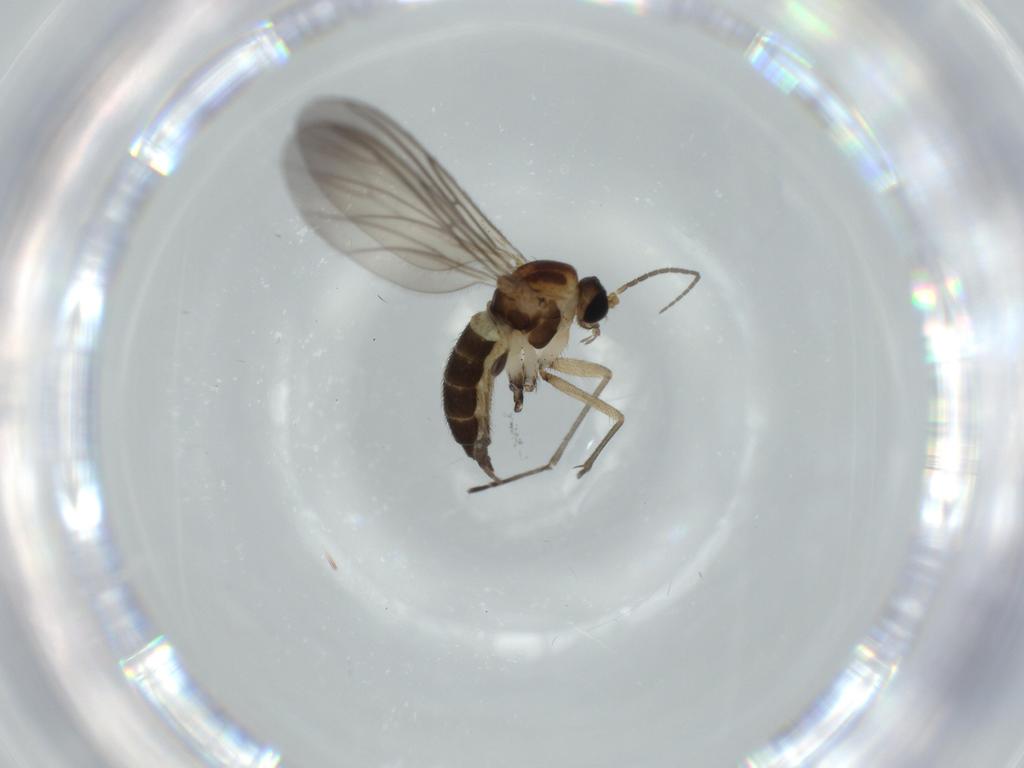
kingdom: Animalia
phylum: Arthropoda
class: Insecta
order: Diptera
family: Sciaridae
